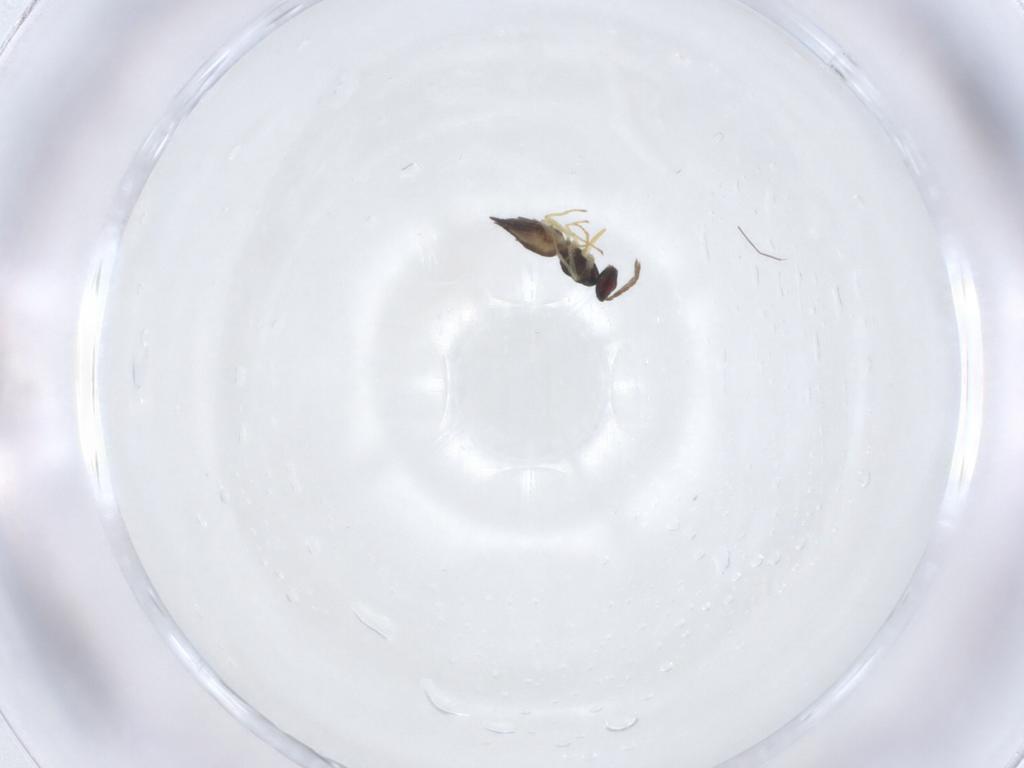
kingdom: Animalia
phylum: Arthropoda
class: Insecta
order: Hymenoptera
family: Eulophidae
